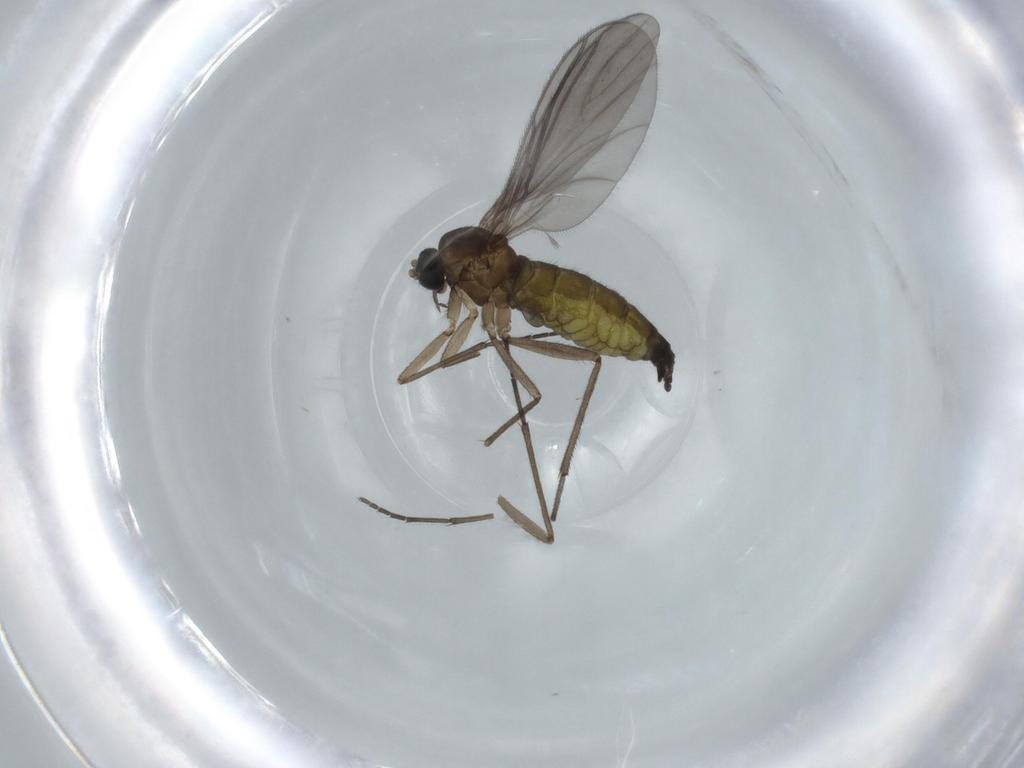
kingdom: Animalia
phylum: Arthropoda
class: Insecta
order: Diptera
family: Sciaridae
